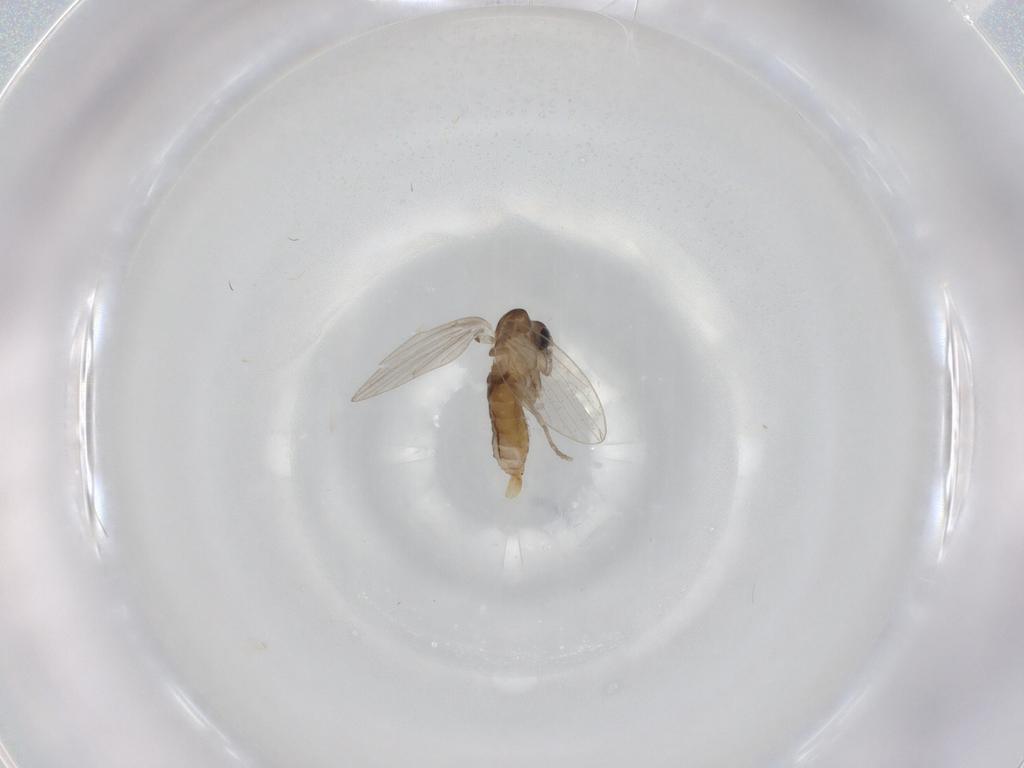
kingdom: Animalia
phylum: Arthropoda
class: Insecta
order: Diptera
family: Psychodidae
